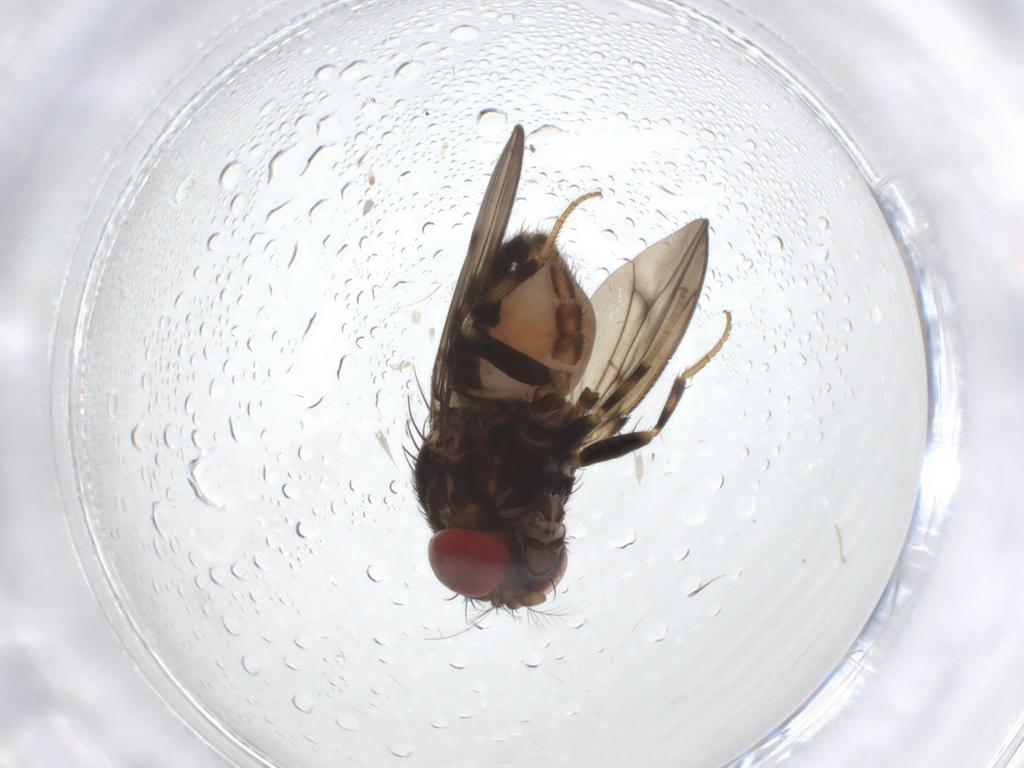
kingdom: Animalia
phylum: Arthropoda
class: Insecta
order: Diptera
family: Drosophilidae
